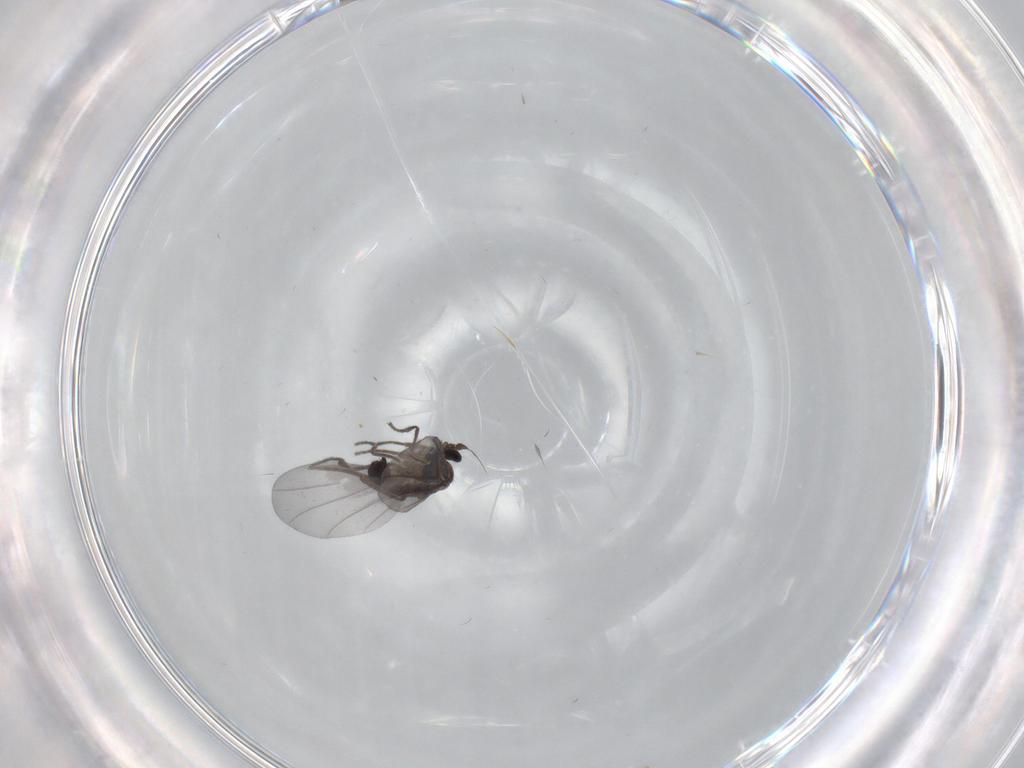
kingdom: Animalia
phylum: Arthropoda
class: Insecta
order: Diptera
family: Phoridae
